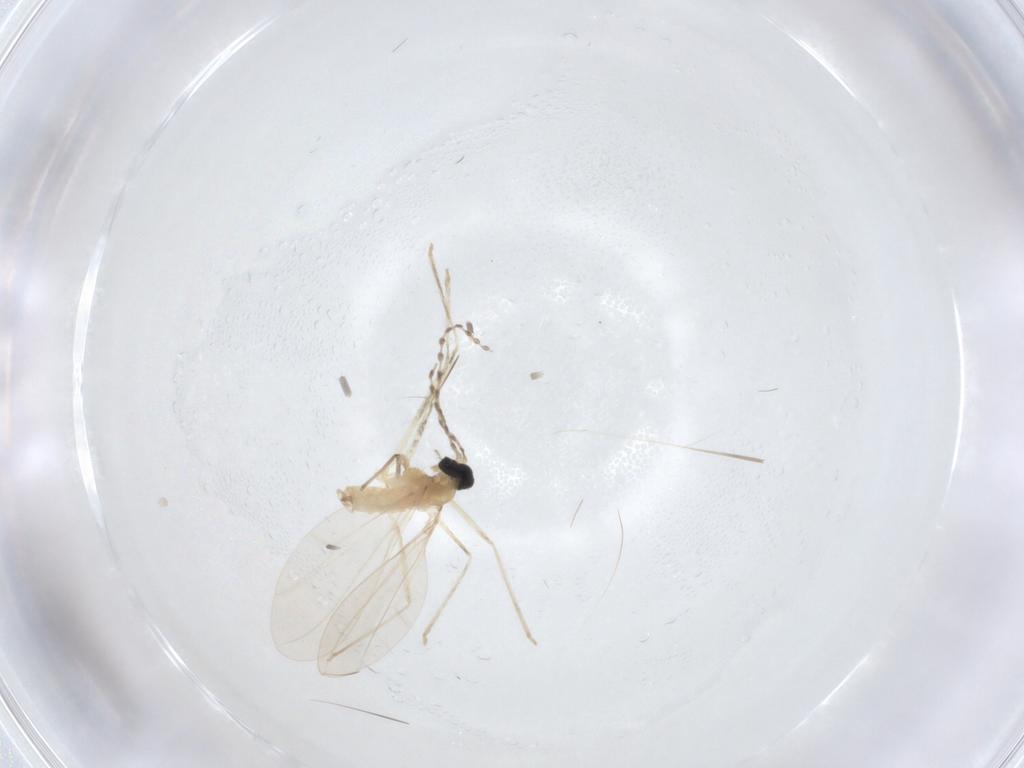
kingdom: Animalia
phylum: Arthropoda
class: Insecta
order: Diptera
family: Cecidomyiidae
